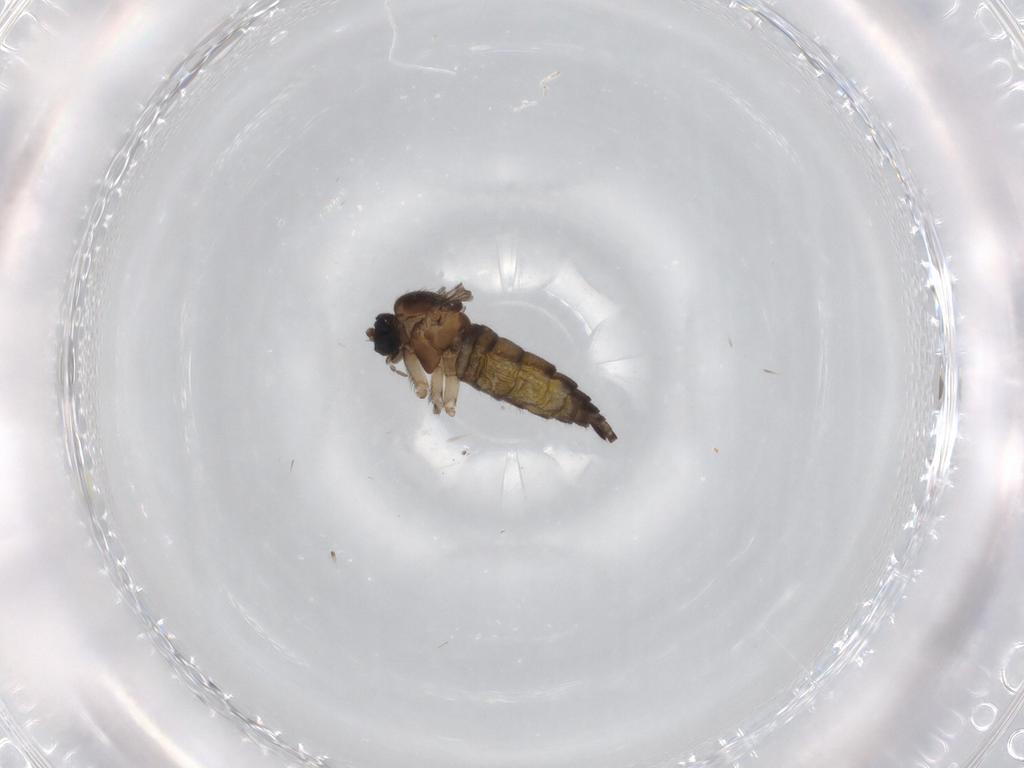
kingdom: Animalia
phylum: Arthropoda
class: Insecta
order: Diptera
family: Sciaridae
